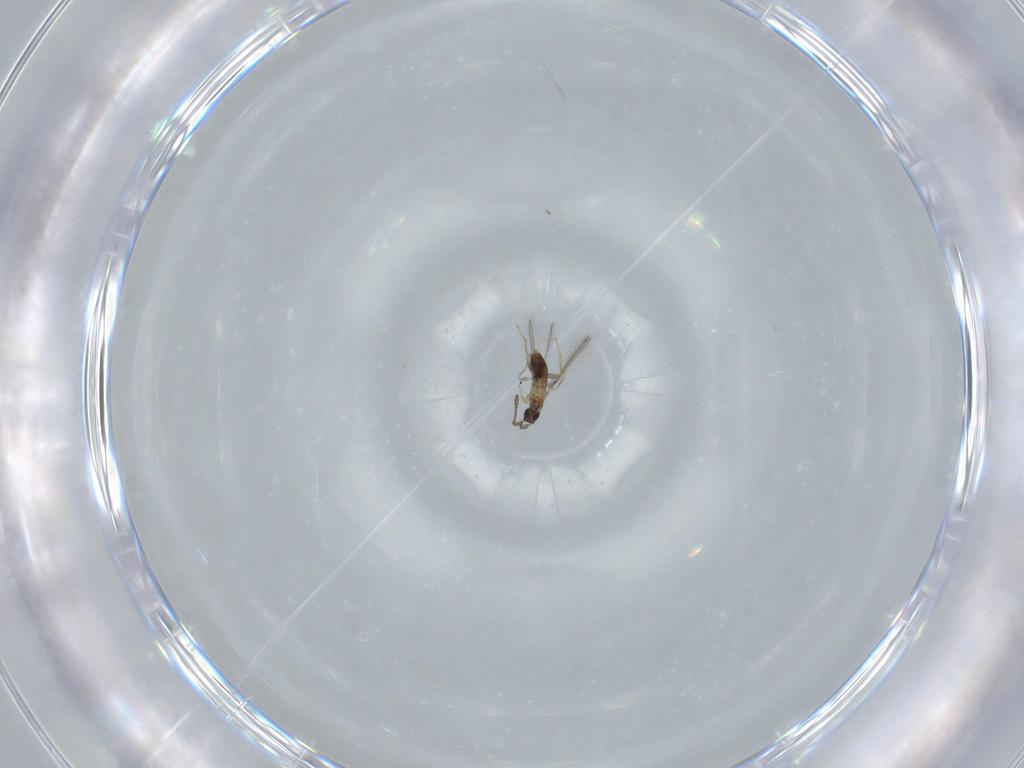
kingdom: Animalia
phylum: Arthropoda
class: Insecta
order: Hymenoptera
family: Mymaridae
